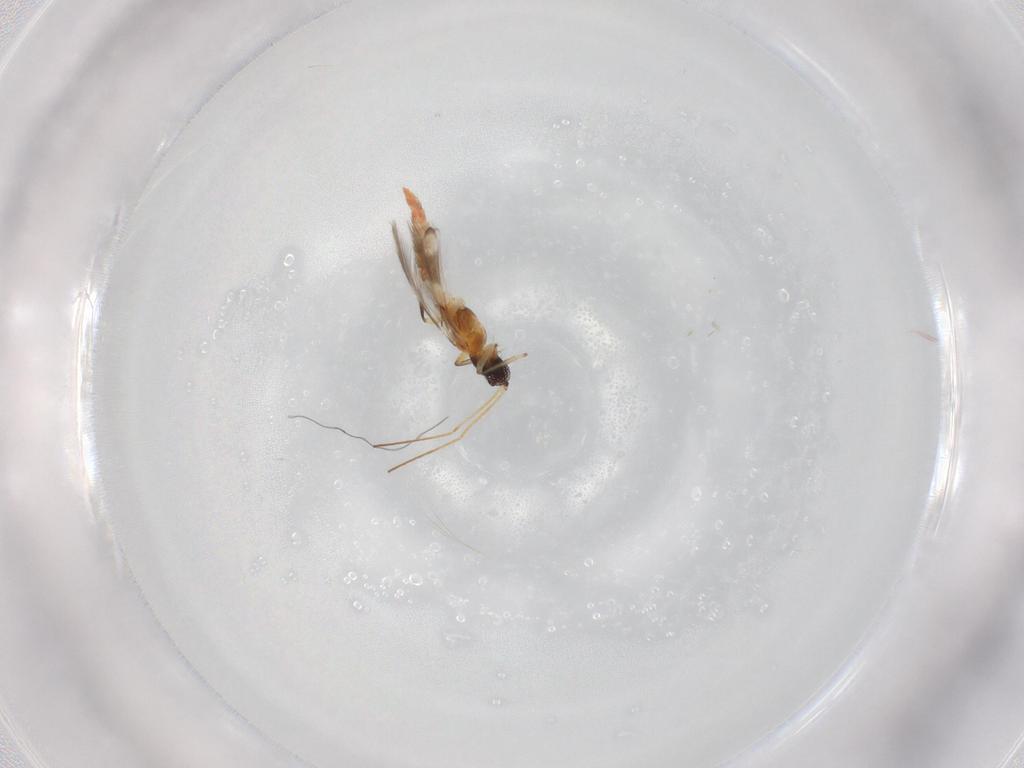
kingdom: Animalia
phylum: Arthropoda
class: Insecta
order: Thysanoptera
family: Aeolothripidae
